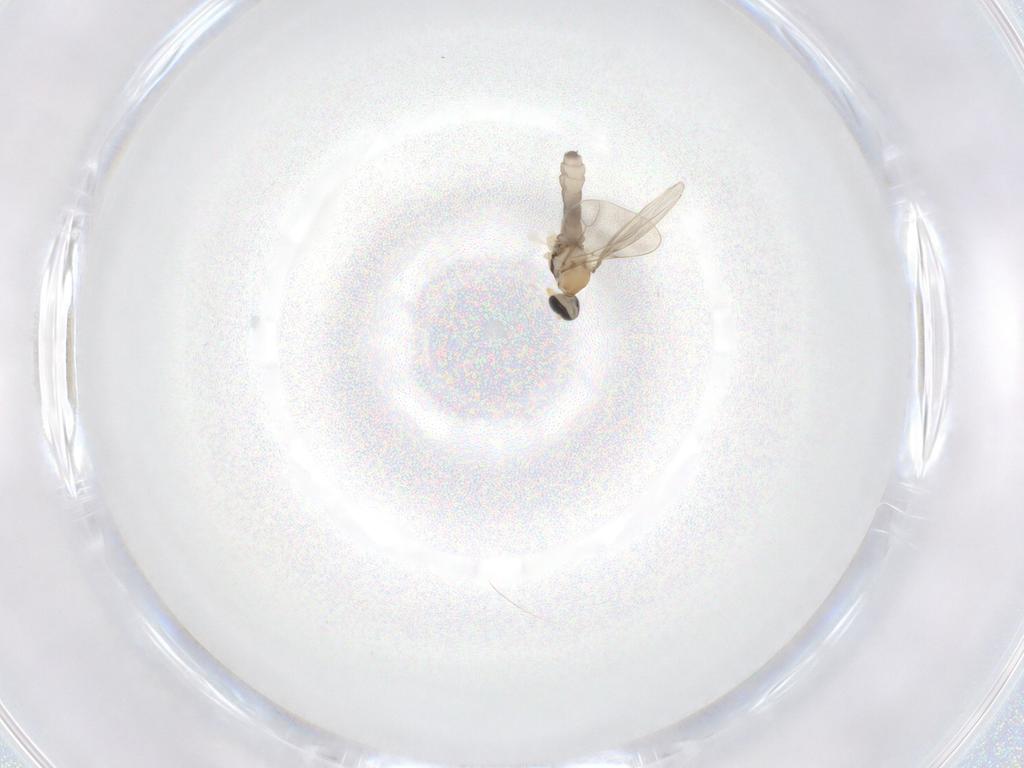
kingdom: Animalia
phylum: Arthropoda
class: Insecta
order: Diptera
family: Cecidomyiidae
